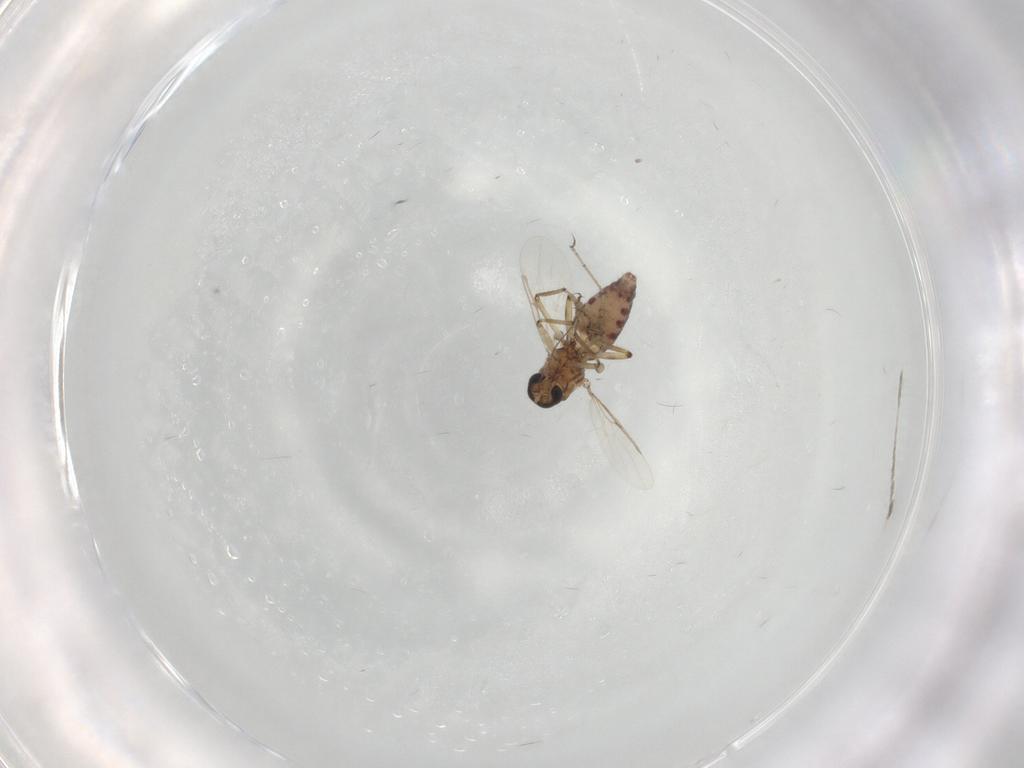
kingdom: Animalia
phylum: Arthropoda
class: Insecta
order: Diptera
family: Ceratopogonidae
